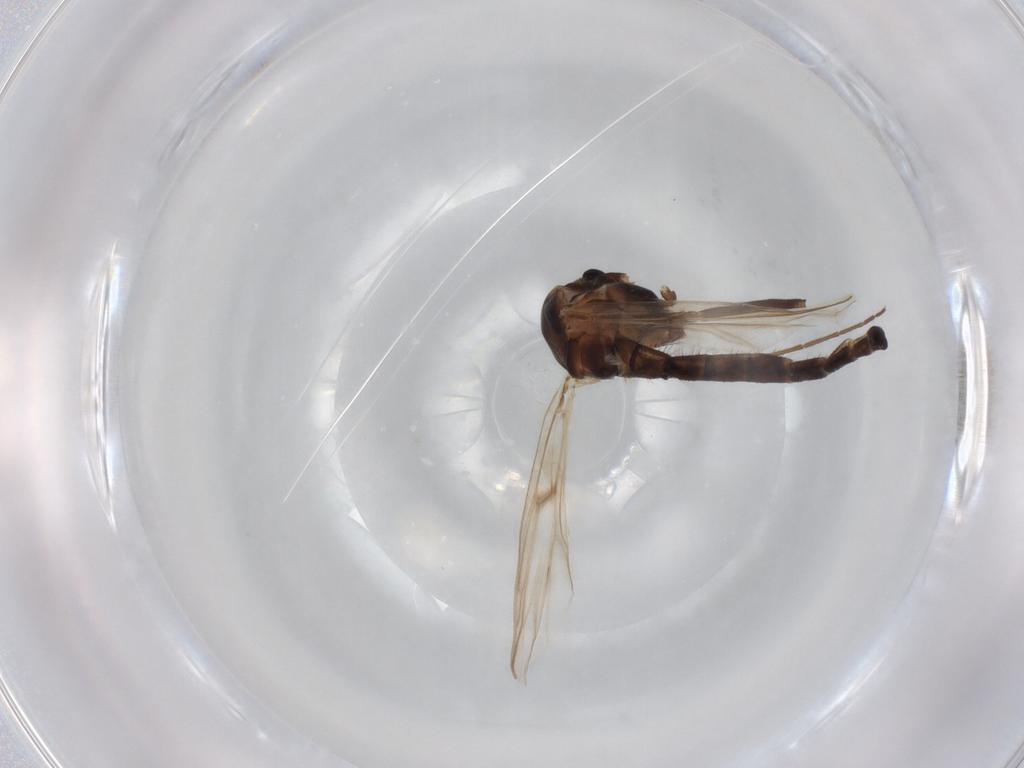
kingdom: Animalia
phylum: Arthropoda
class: Insecta
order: Diptera
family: Chironomidae
